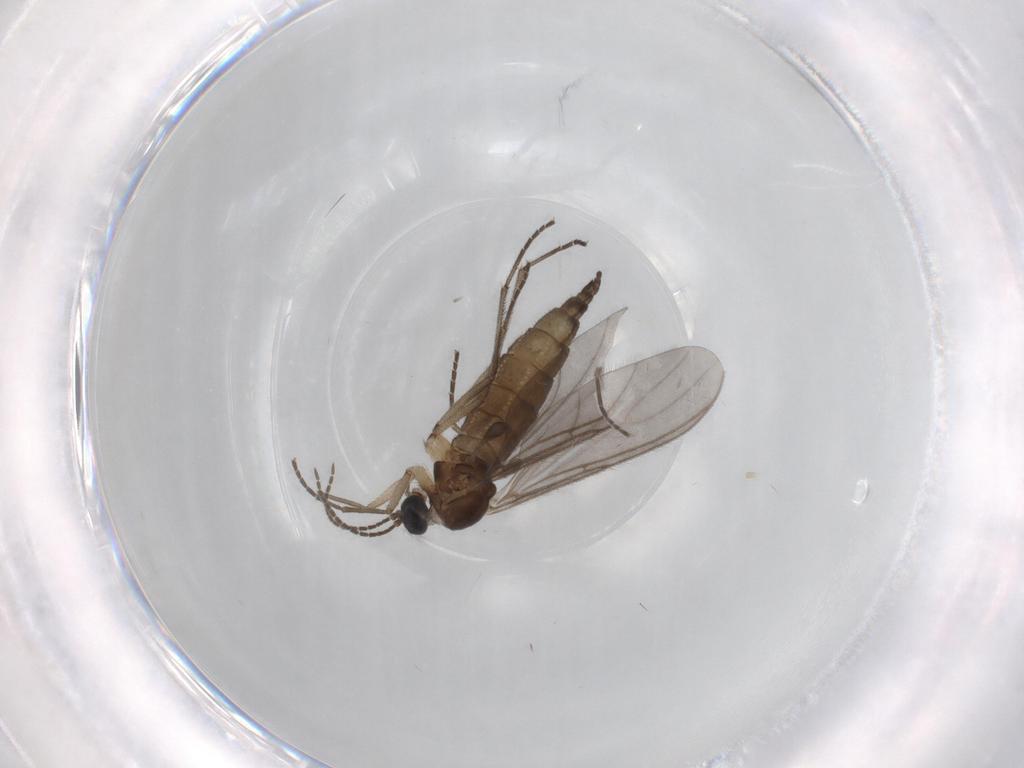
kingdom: Animalia
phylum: Arthropoda
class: Insecta
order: Diptera
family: Sciaridae
